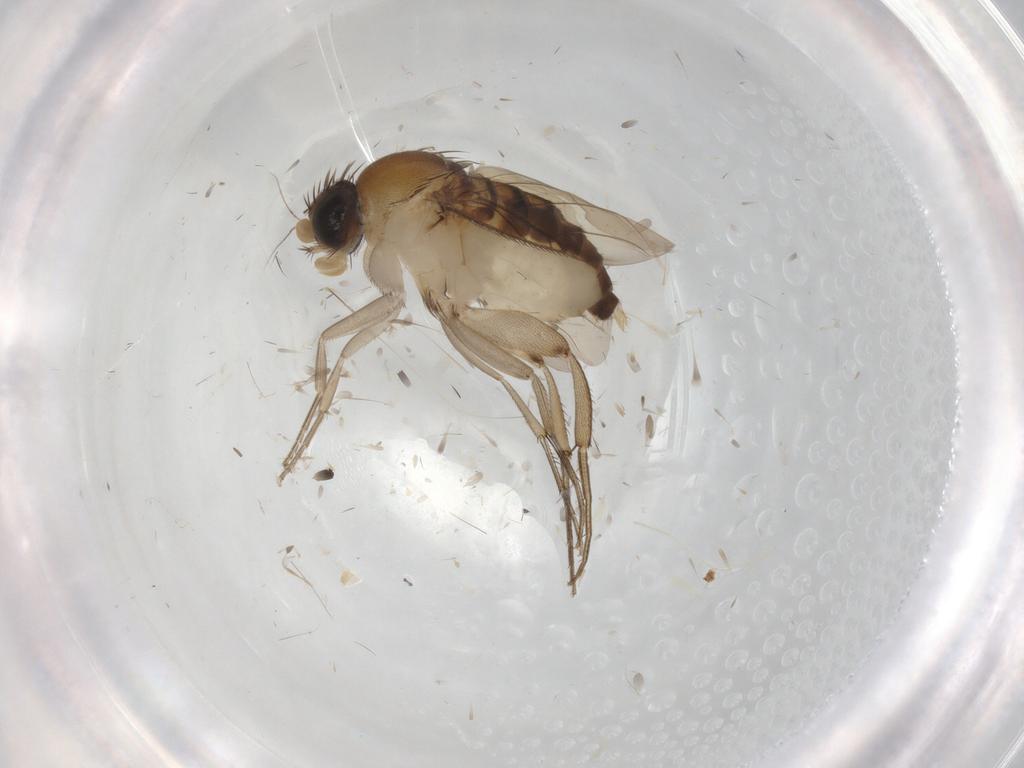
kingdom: Animalia
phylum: Arthropoda
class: Insecta
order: Diptera
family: Phoridae
